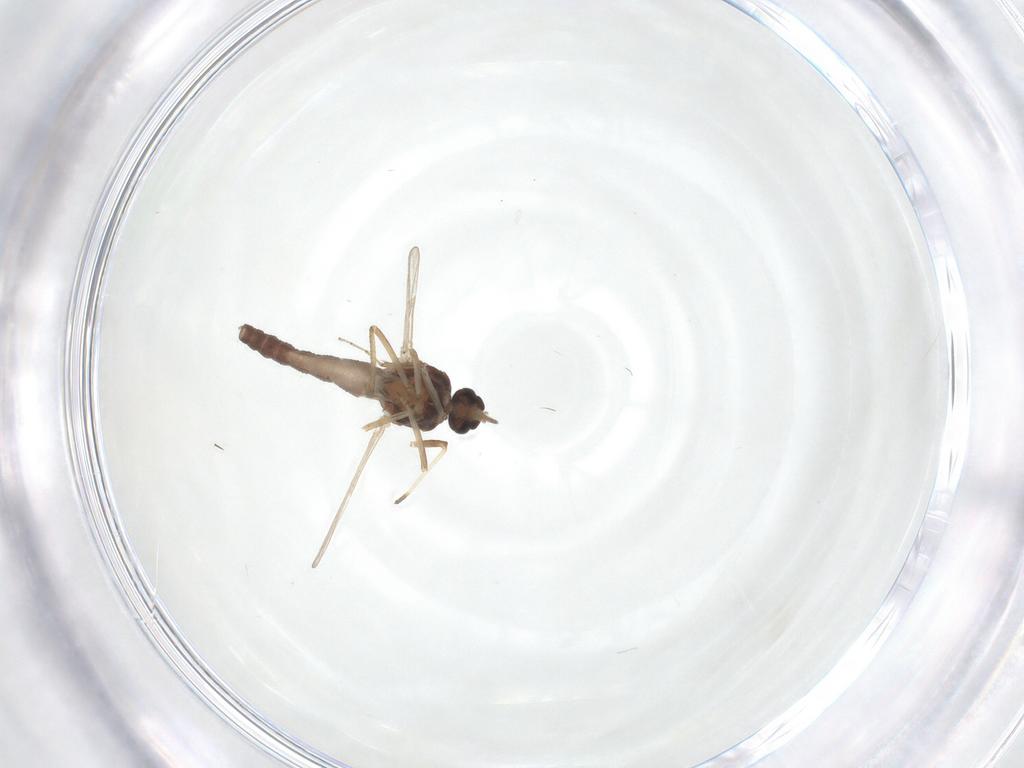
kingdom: Animalia
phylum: Arthropoda
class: Insecta
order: Diptera
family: Ceratopogonidae
